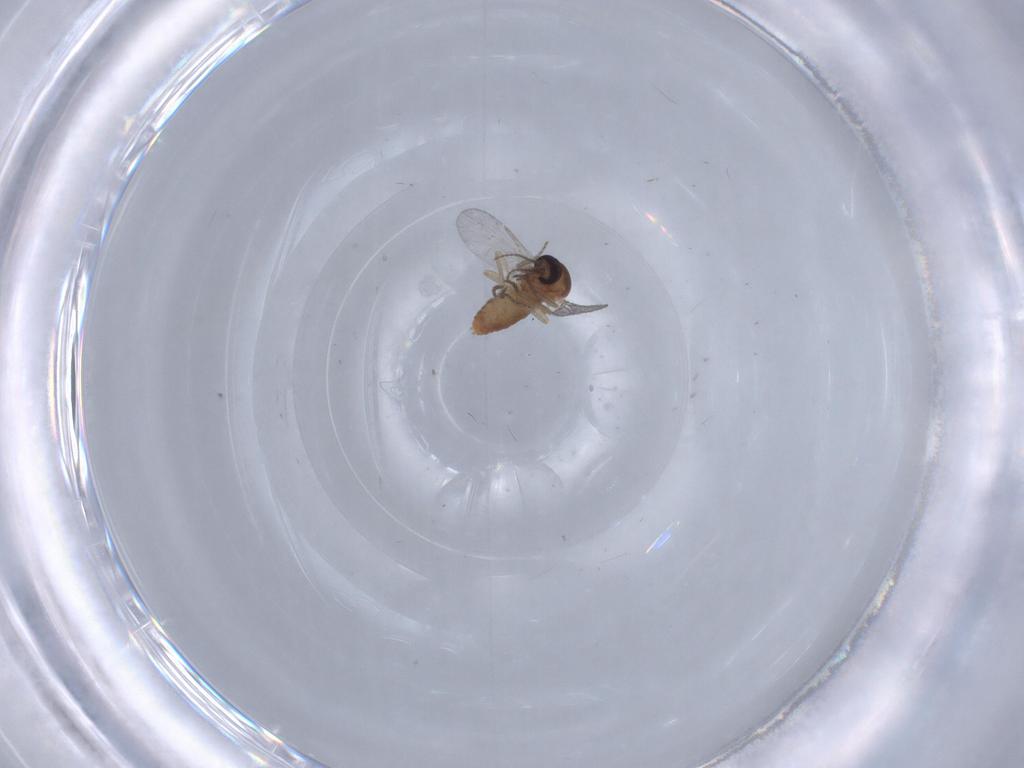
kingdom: Animalia
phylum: Arthropoda
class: Insecta
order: Diptera
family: Ceratopogonidae
